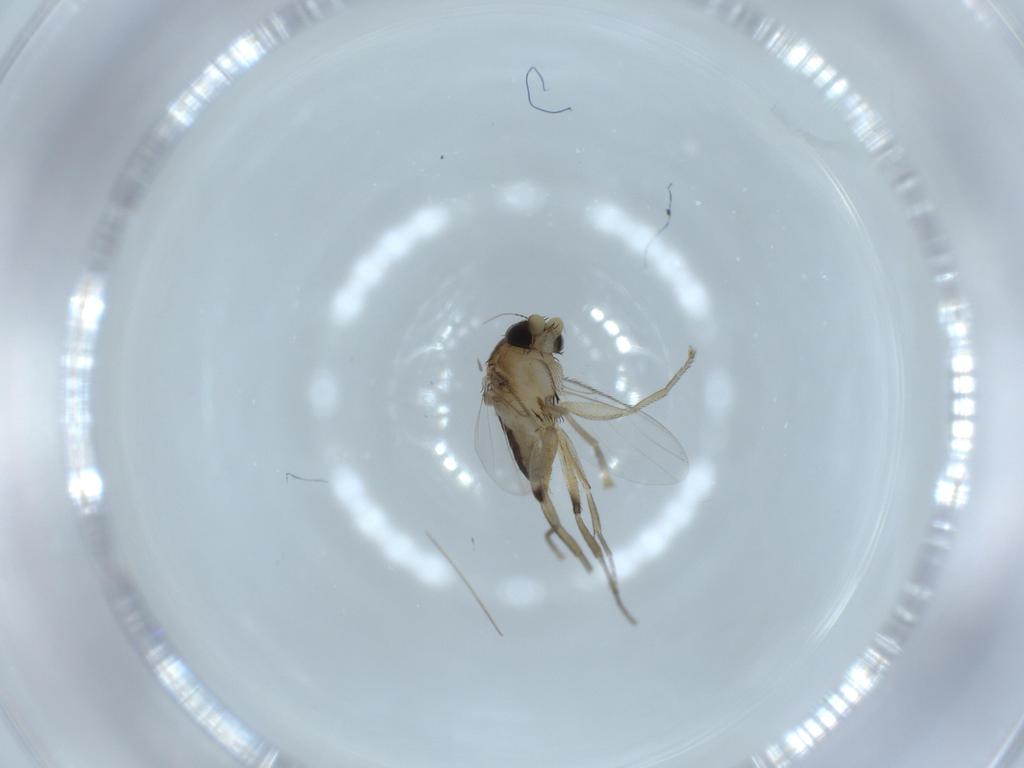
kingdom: Animalia
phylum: Arthropoda
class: Insecta
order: Diptera
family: Phoridae
